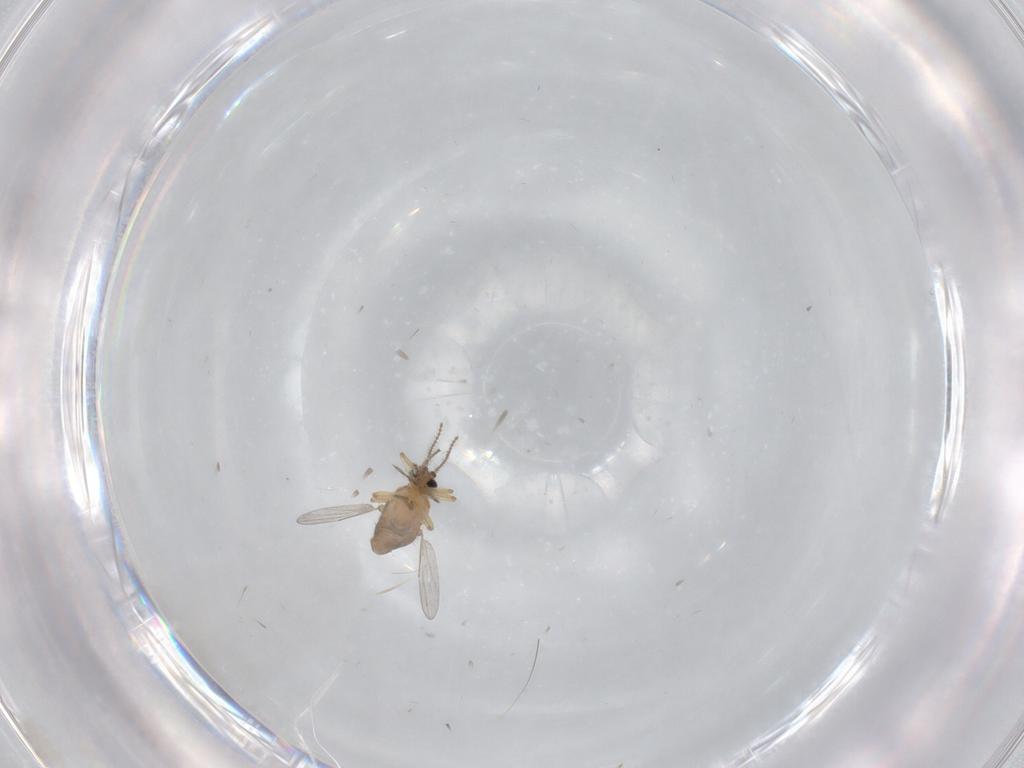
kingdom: Animalia
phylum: Arthropoda
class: Insecta
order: Diptera
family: Ceratopogonidae
